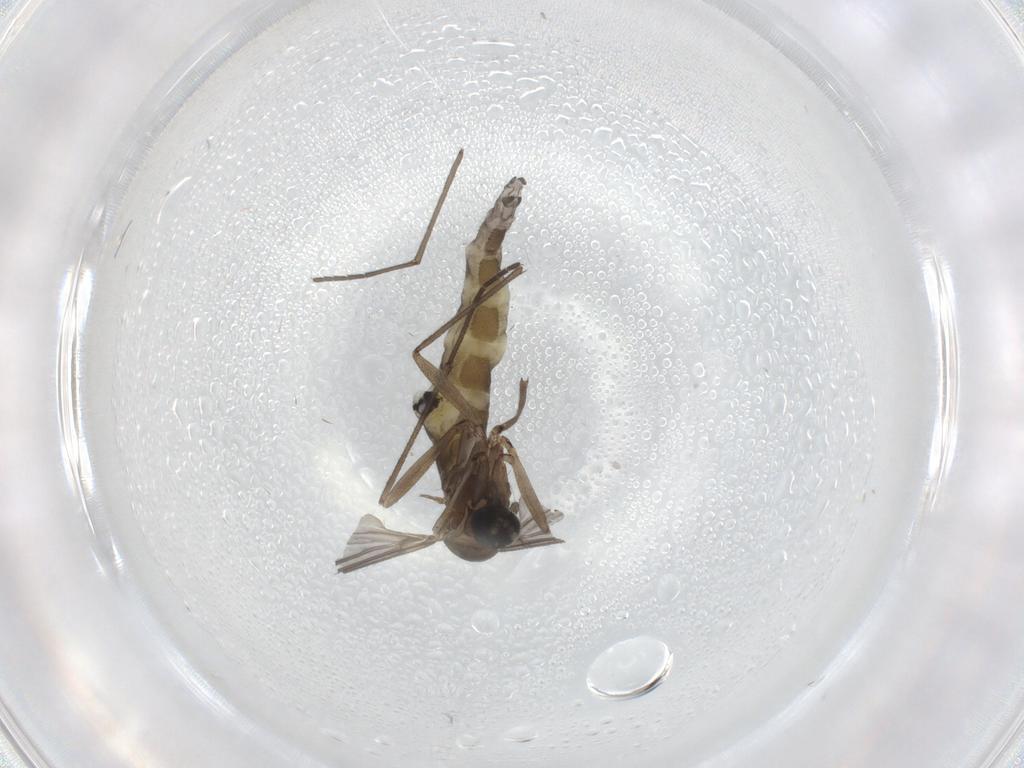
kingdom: Animalia
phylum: Arthropoda
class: Insecta
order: Diptera
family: Sciaridae
